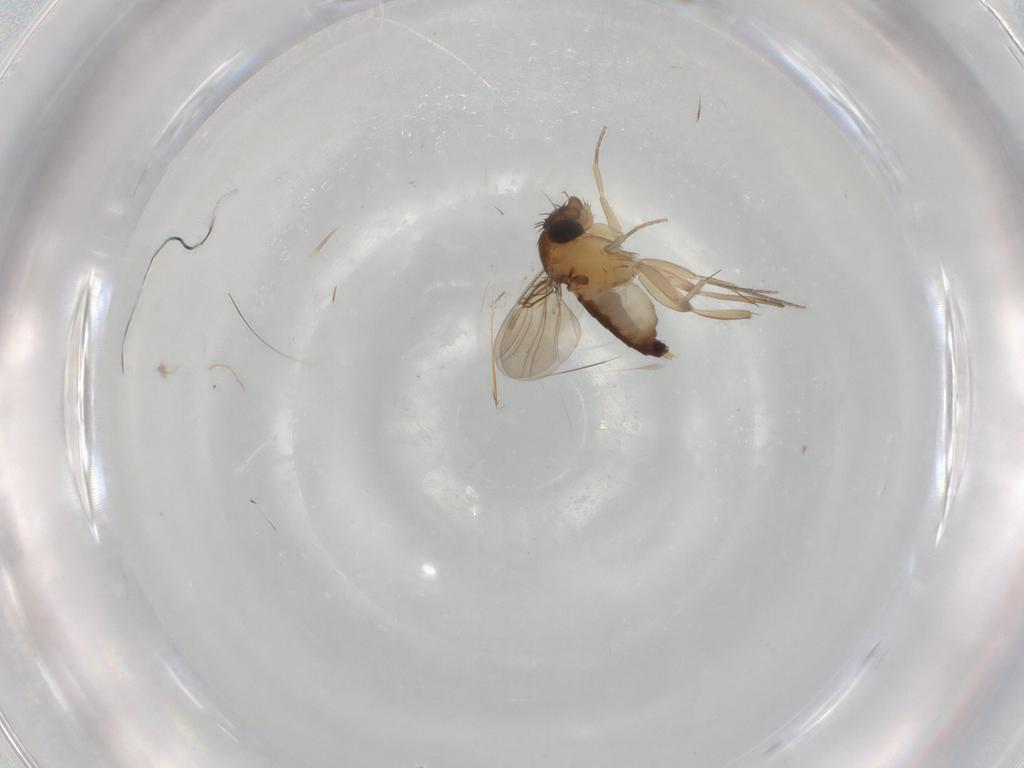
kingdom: Animalia
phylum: Arthropoda
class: Insecta
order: Diptera
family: Phoridae
